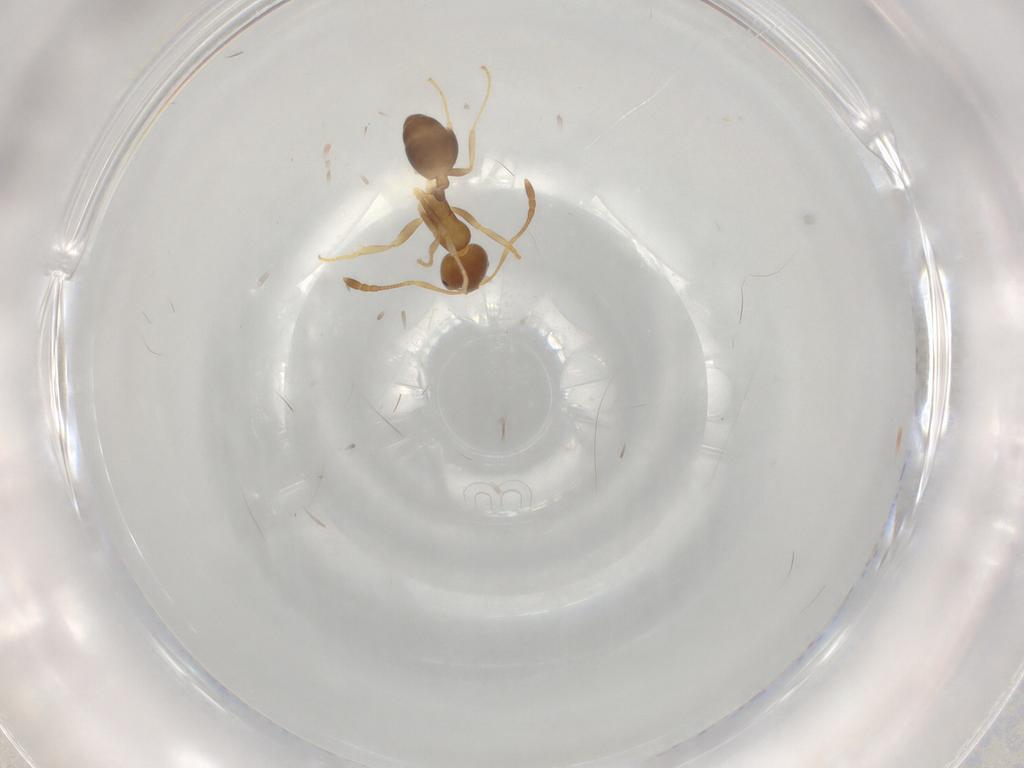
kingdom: Animalia
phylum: Arthropoda
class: Insecta
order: Hymenoptera
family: Formicidae
